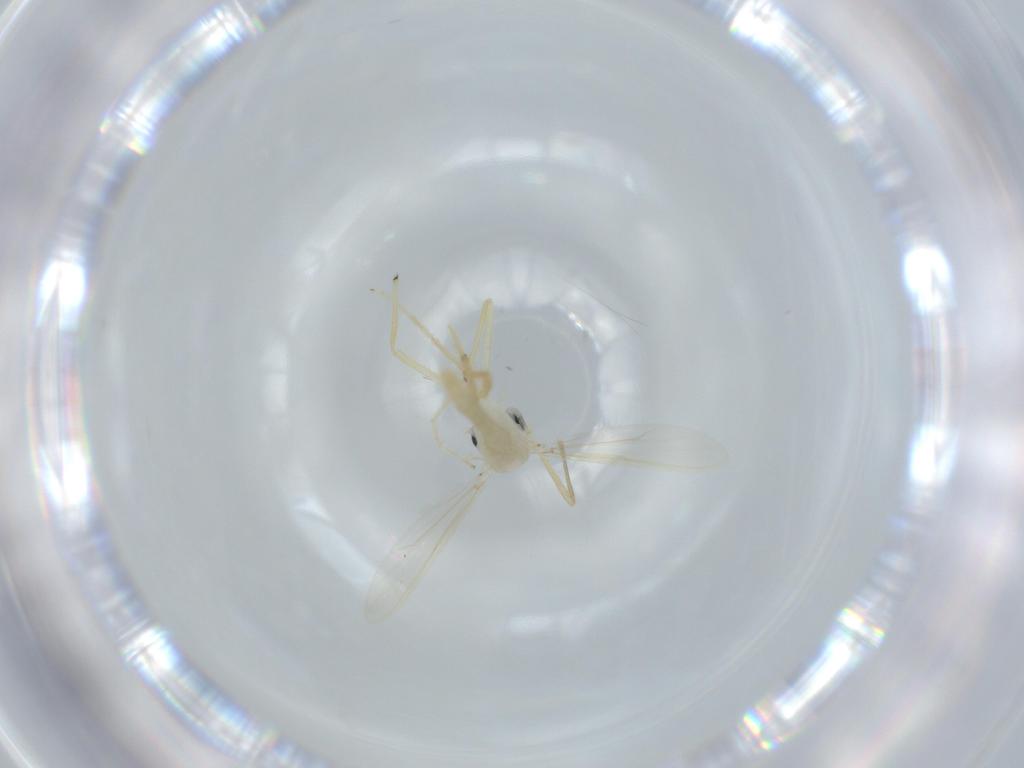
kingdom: Animalia
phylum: Arthropoda
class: Insecta
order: Diptera
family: Chironomidae
